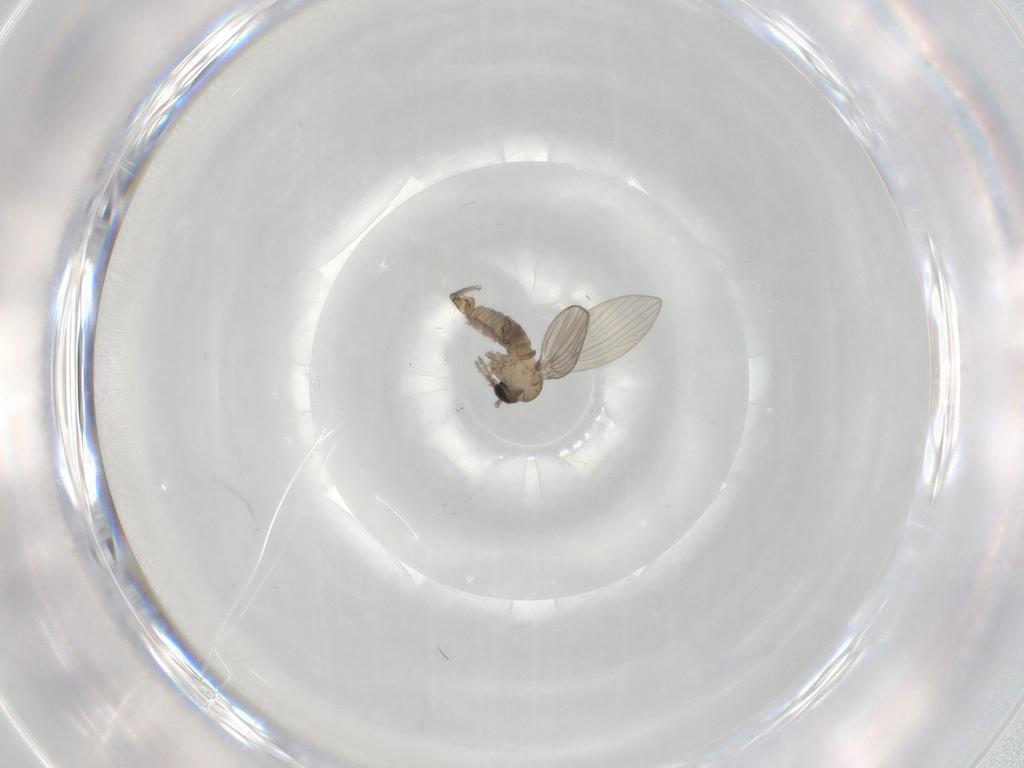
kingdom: Animalia
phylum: Arthropoda
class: Insecta
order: Diptera
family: Psychodidae
